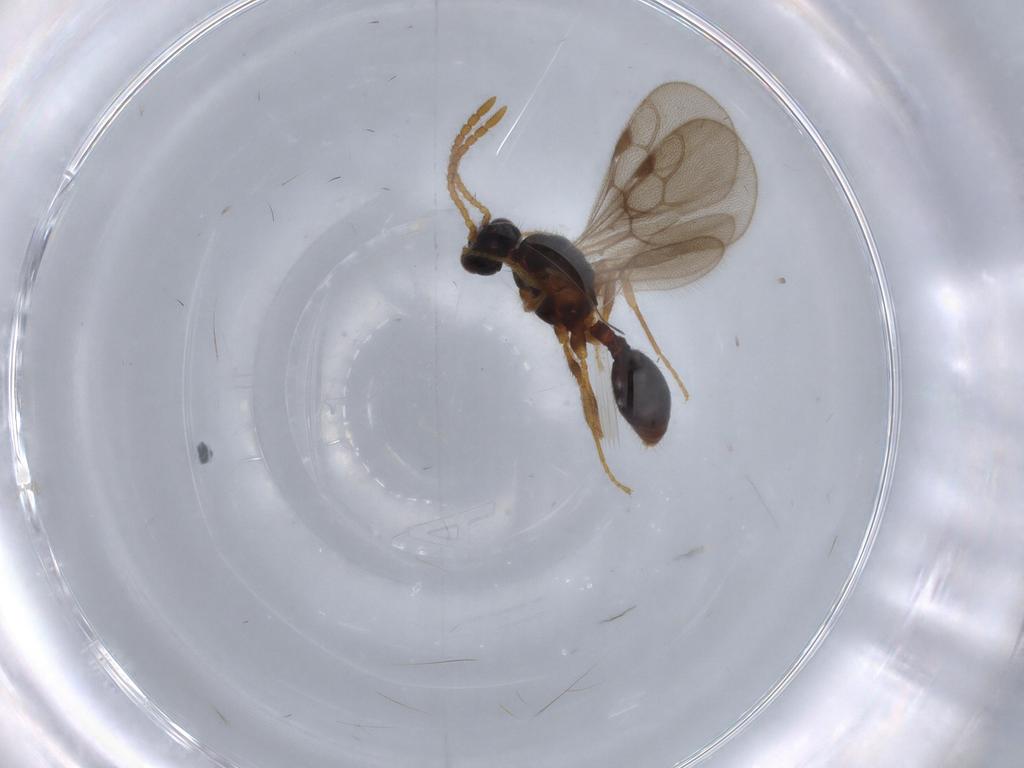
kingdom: Animalia
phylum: Arthropoda
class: Insecta
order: Hymenoptera
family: Formicidae
